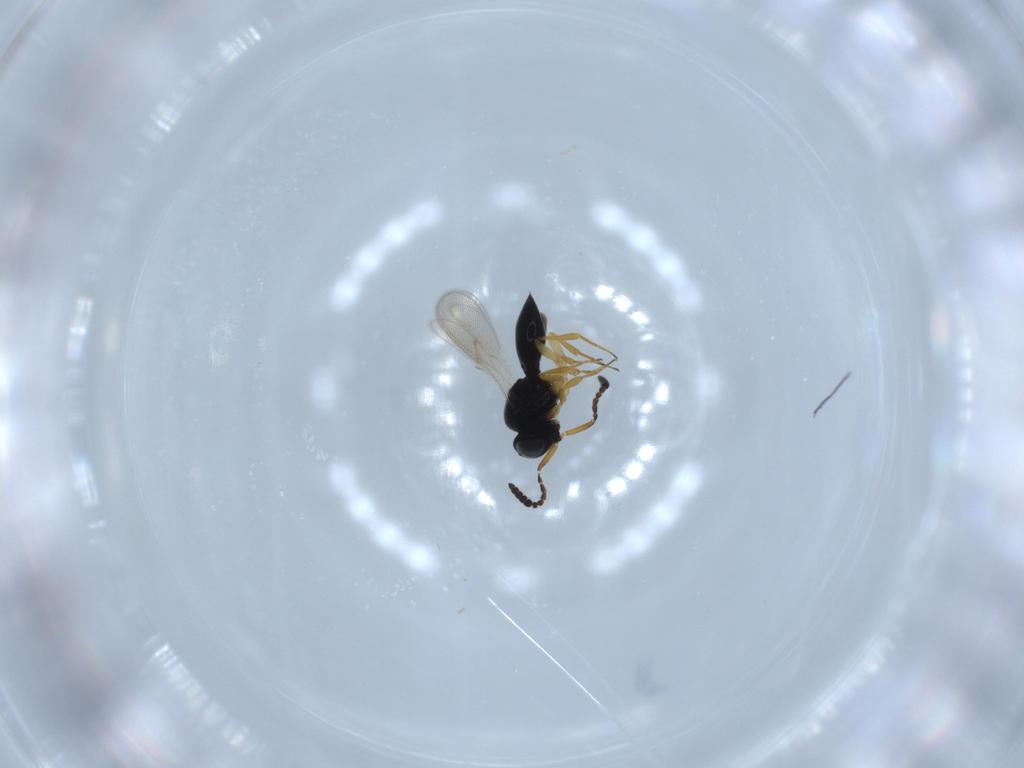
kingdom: Animalia
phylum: Arthropoda
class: Insecta
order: Hymenoptera
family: Scelionidae
